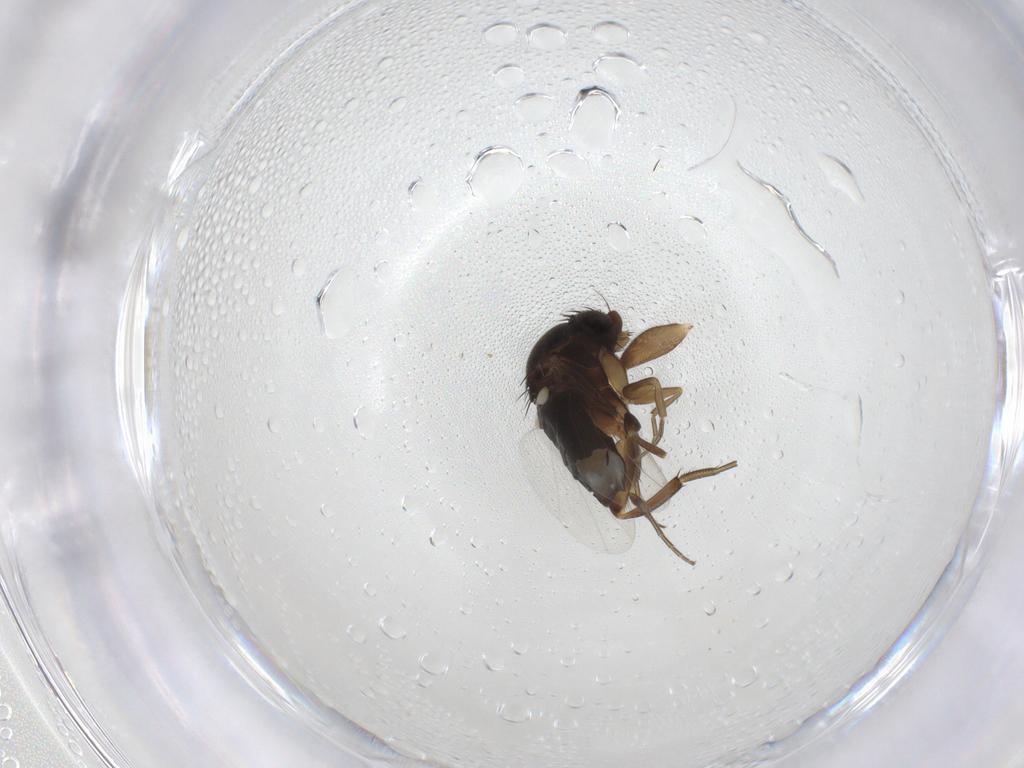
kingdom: Animalia
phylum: Arthropoda
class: Insecta
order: Diptera
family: Phoridae
